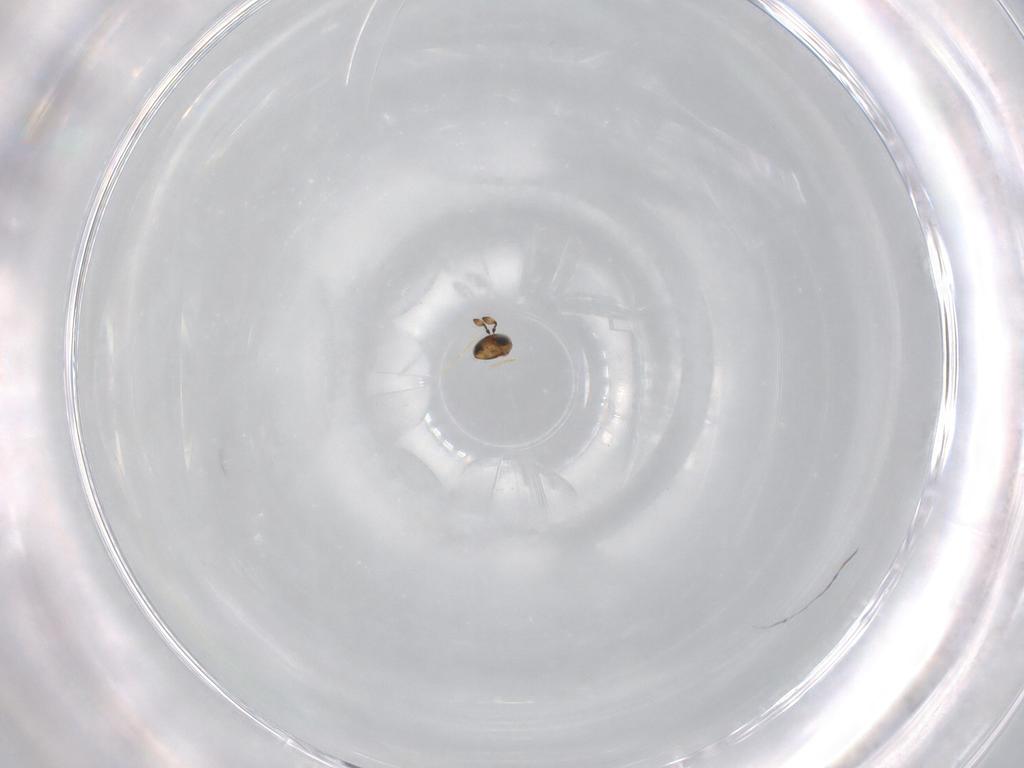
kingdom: Animalia
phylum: Arthropoda
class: Insecta
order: Hymenoptera
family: Scelionidae
